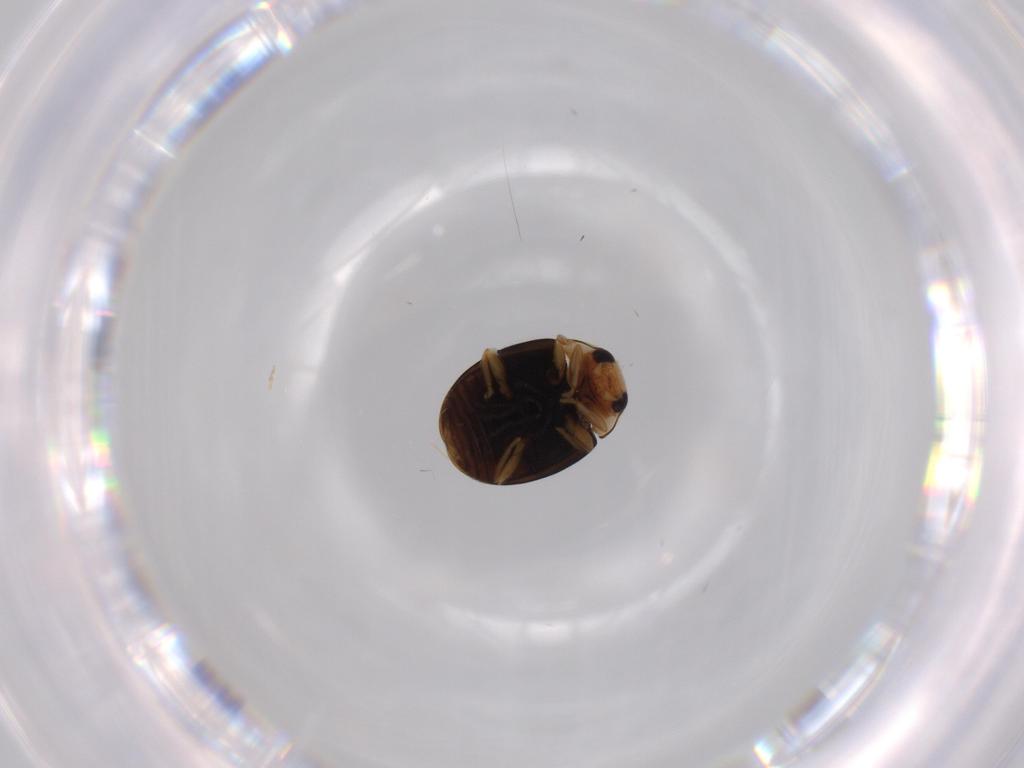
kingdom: Animalia
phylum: Arthropoda
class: Insecta
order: Coleoptera
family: Coccinellidae
